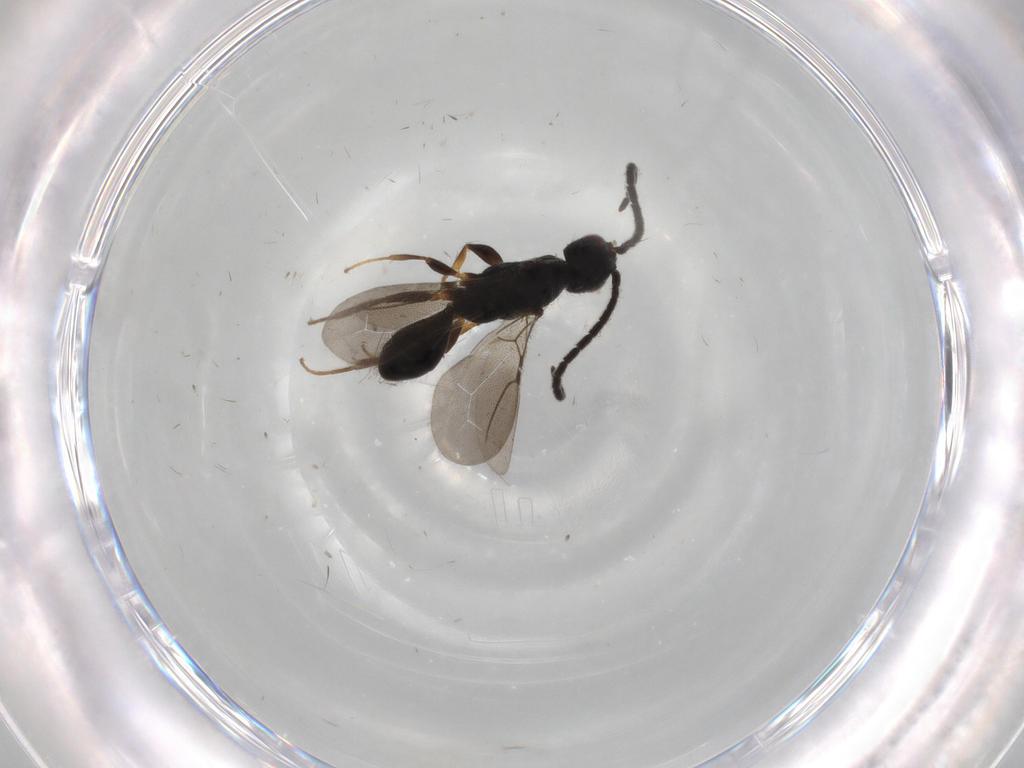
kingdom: Animalia
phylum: Arthropoda
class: Insecta
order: Hymenoptera
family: Bethylidae
